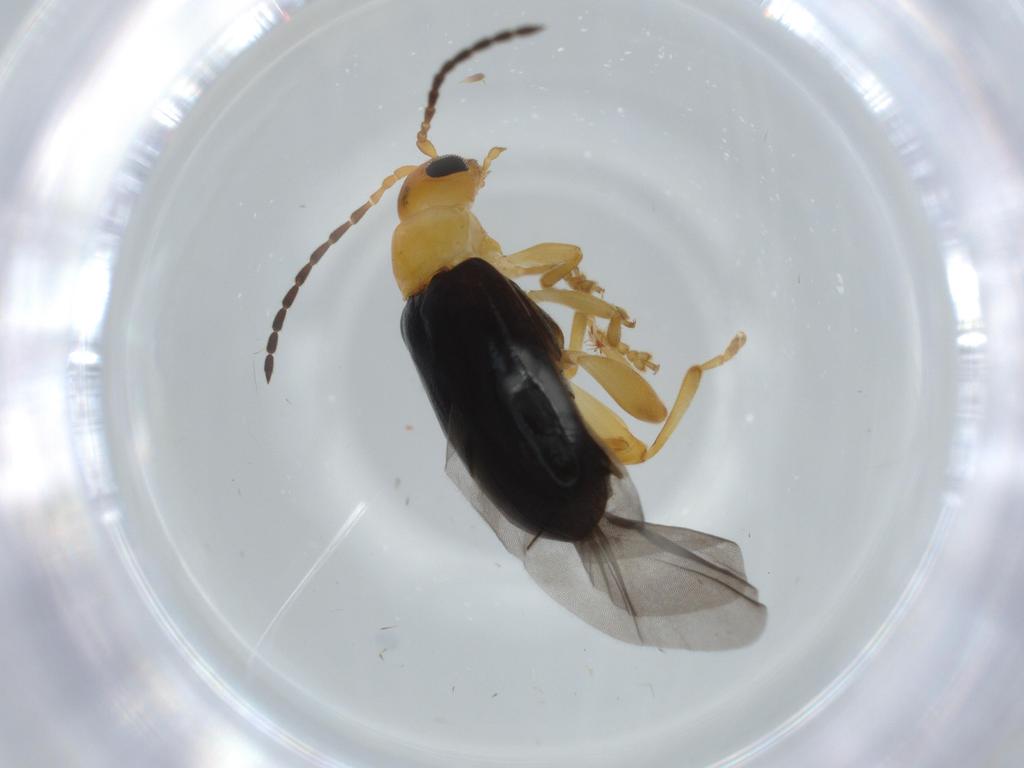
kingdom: Animalia
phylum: Arthropoda
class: Insecta
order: Coleoptera
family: Chrysomelidae
